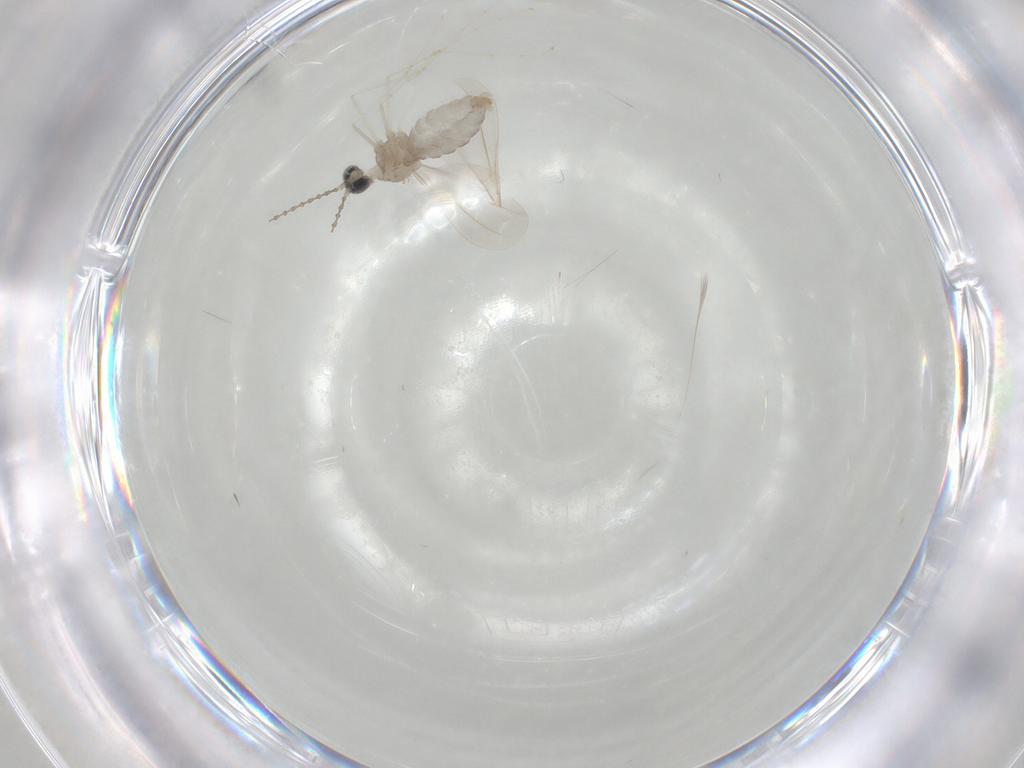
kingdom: Animalia
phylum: Arthropoda
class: Insecta
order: Diptera
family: Cecidomyiidae
